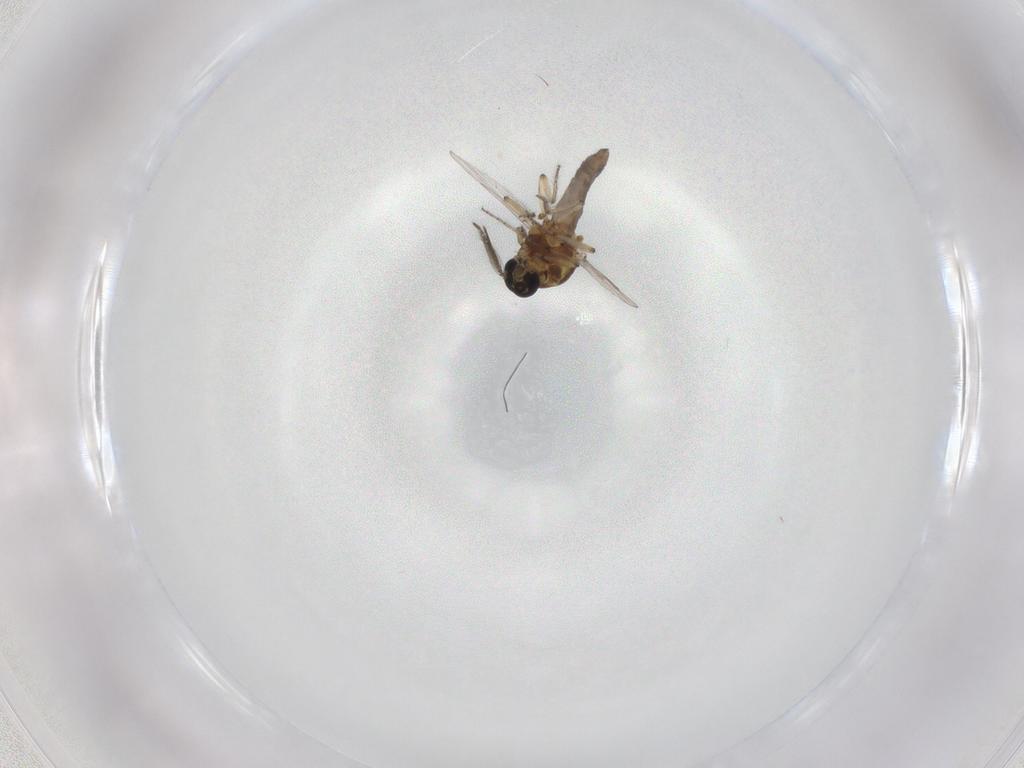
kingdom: Animalia
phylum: Arthropoda
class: Insecta
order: Diptera
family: Ceratopogonidae
